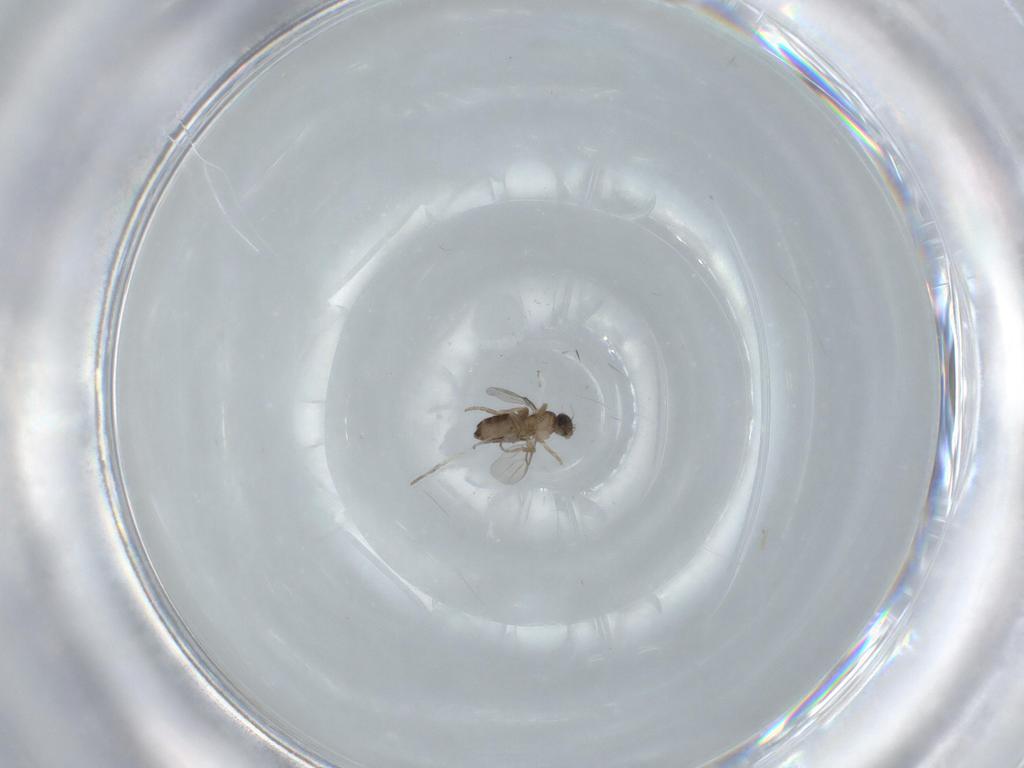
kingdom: Animalia
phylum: Arthropoda
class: Insecta
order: Diptera
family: Phoridae
